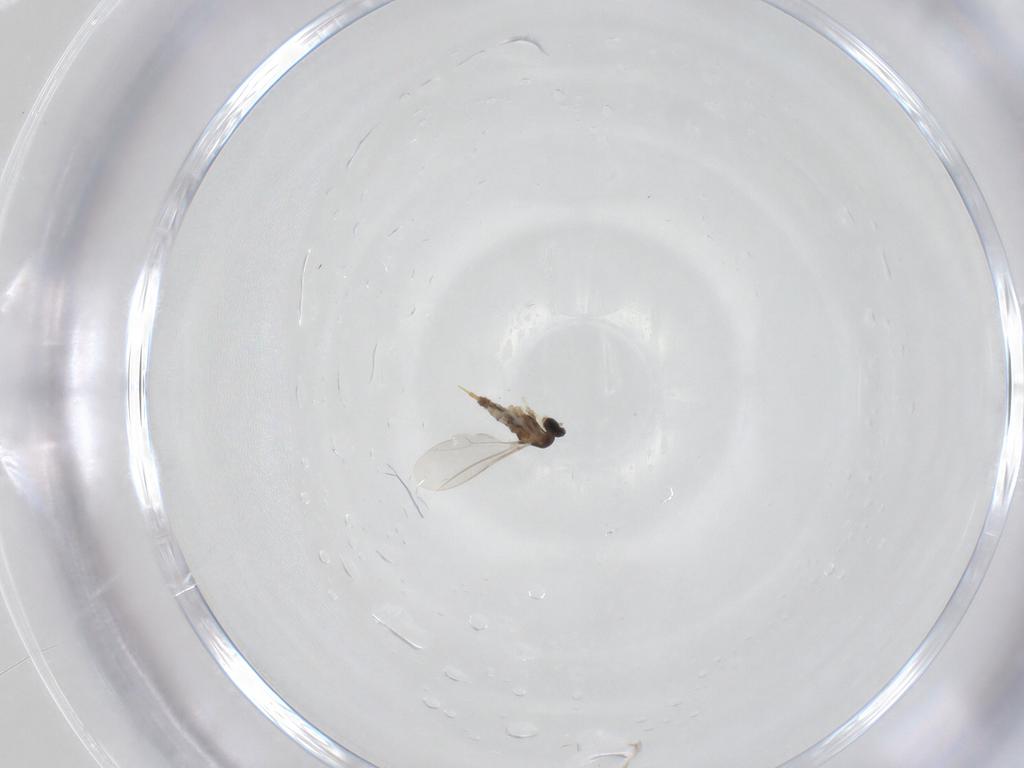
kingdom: Animalia
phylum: Arthropoda
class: Insecta
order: Diptera
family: Cecidomyiidae
